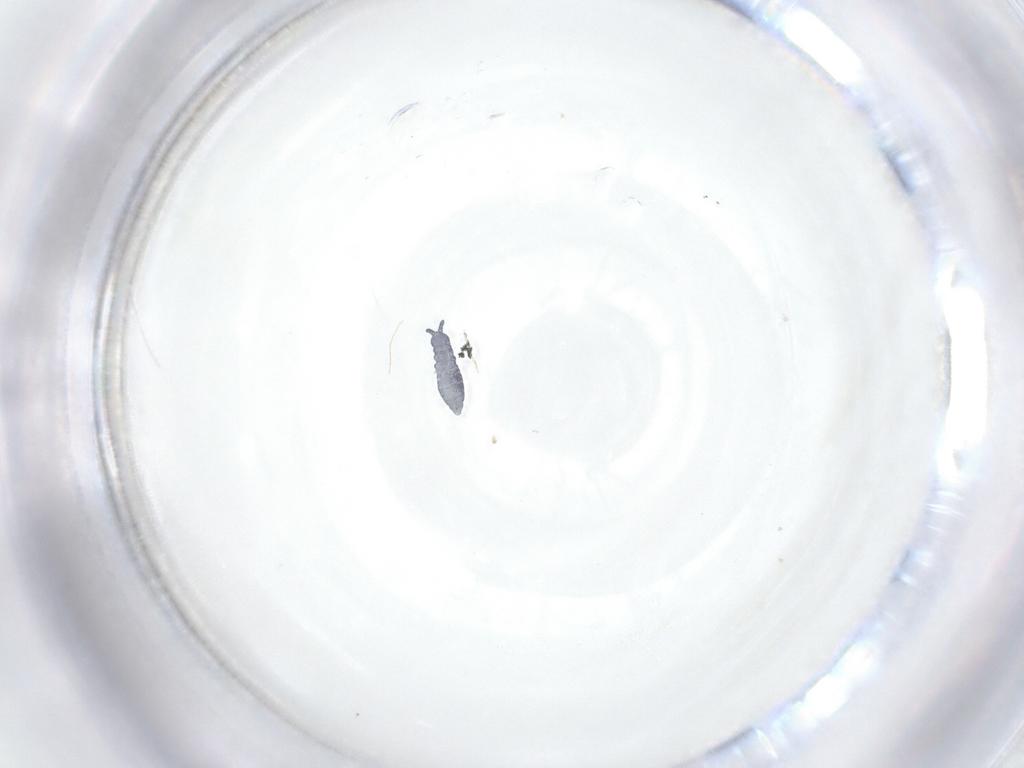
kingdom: Animalia
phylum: Arthropoda
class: Collembola
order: Poduromorpha
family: Hypogastruridae
